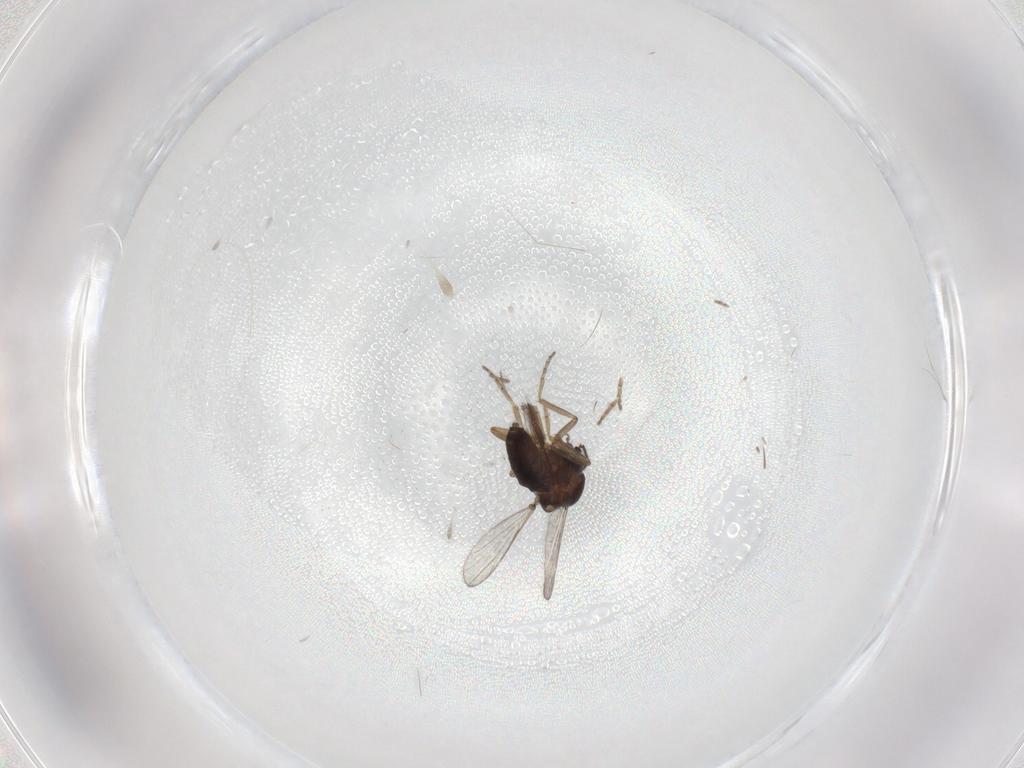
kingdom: Animalia
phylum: Arthropoda
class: Insecta
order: Diptera
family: Ceratopogonidae
